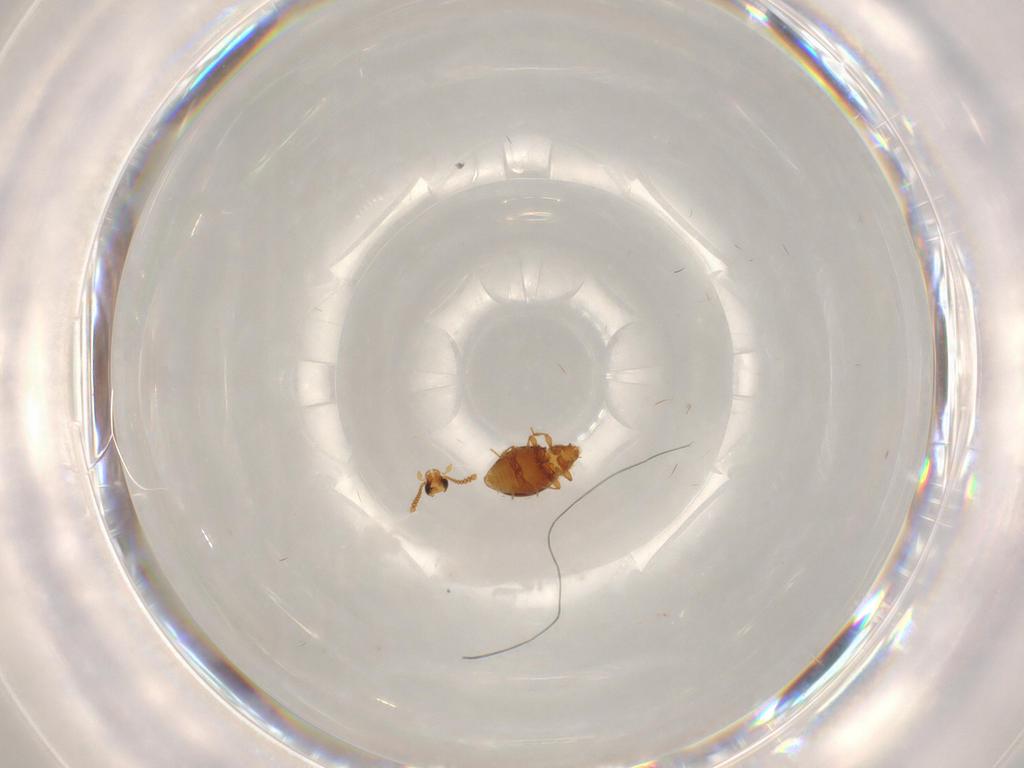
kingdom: Animalia
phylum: Arthropoda
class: Insecta
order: Coleoptera
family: Staphylinidae
